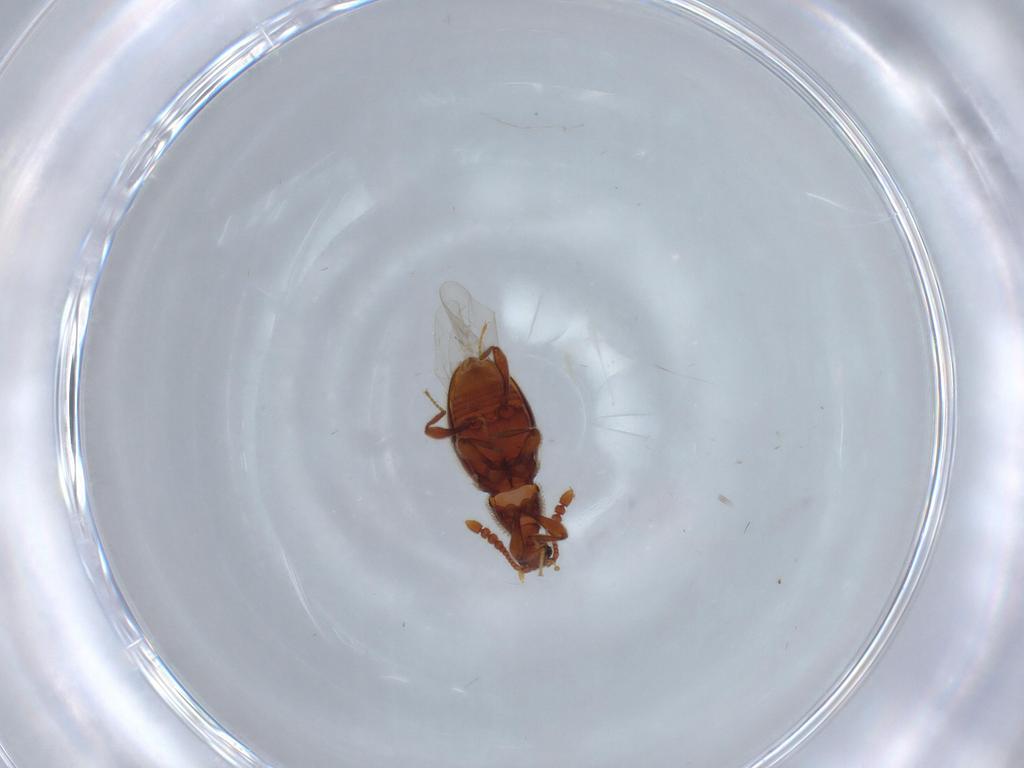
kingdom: Animalia
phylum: Arthropoda
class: Insecta
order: Coleoptera
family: Staphylinidae
